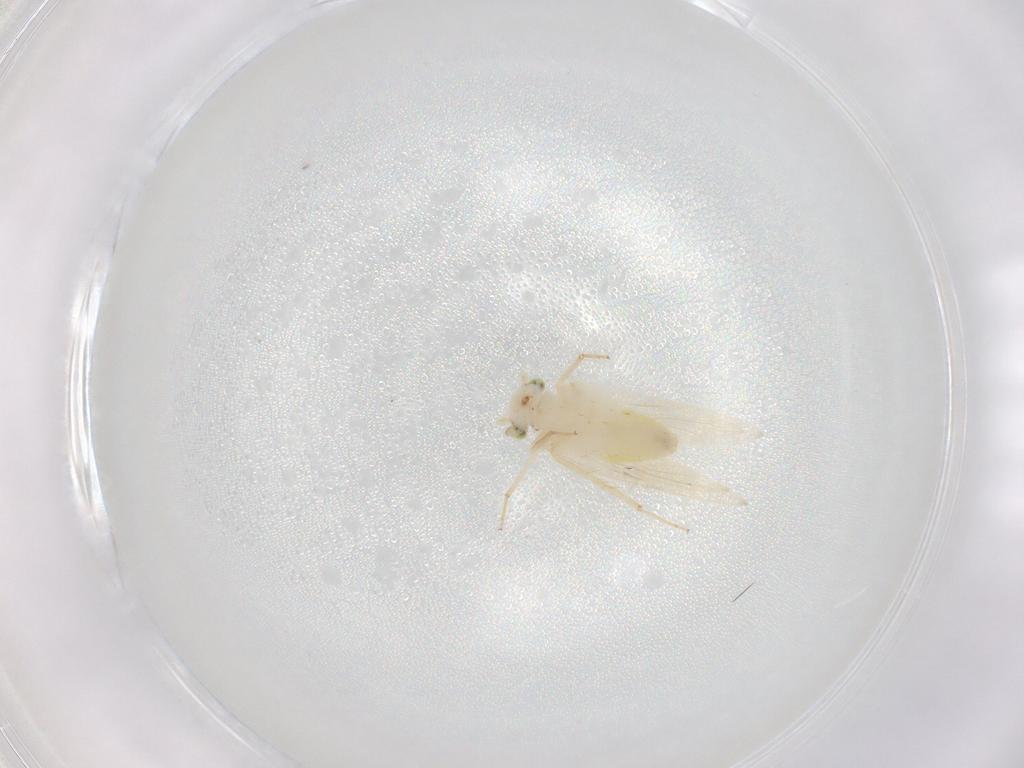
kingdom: Animalia
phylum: Arthropoda
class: Insecta
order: Psocodea
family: Lepidopsocidae
